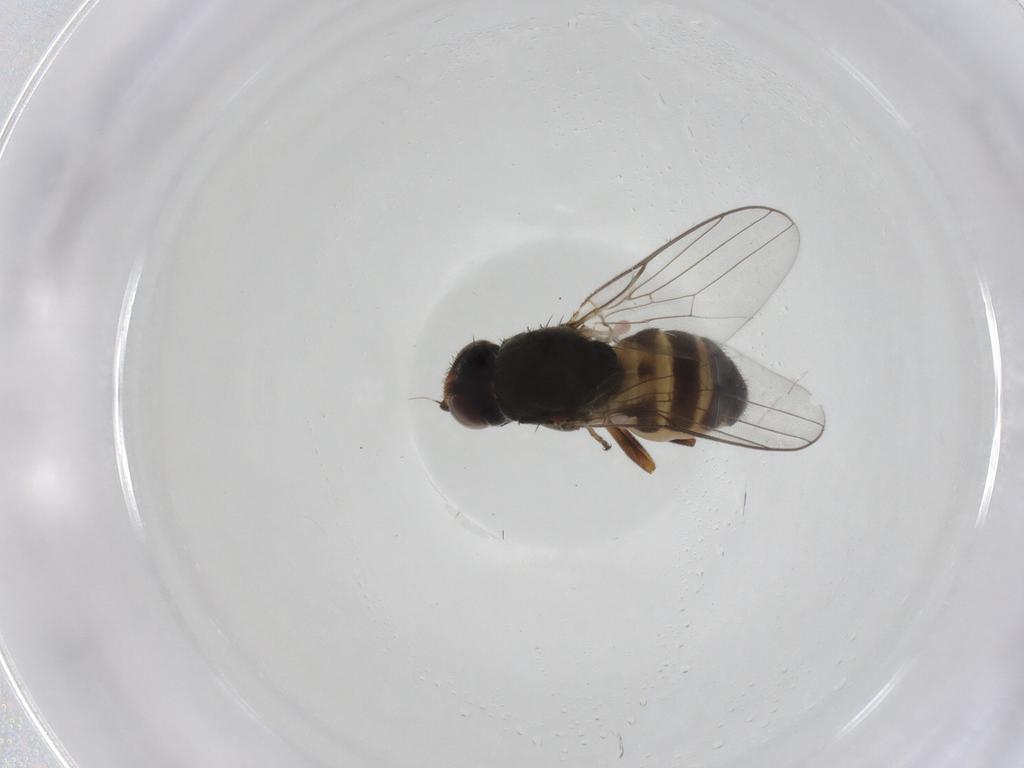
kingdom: Animalia
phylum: Arthropoda
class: Insecta
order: Diptera
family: Chloropidae
